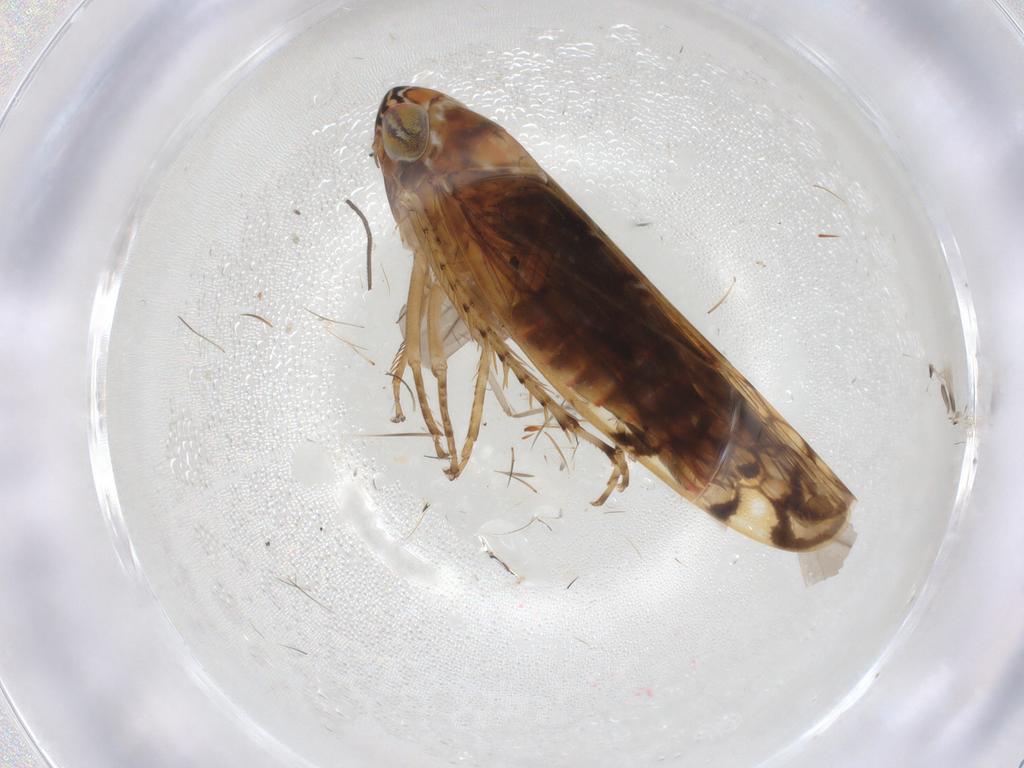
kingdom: Animalia
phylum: Arthropoda
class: Insecta
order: Hemiptera
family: Cicadellidae
